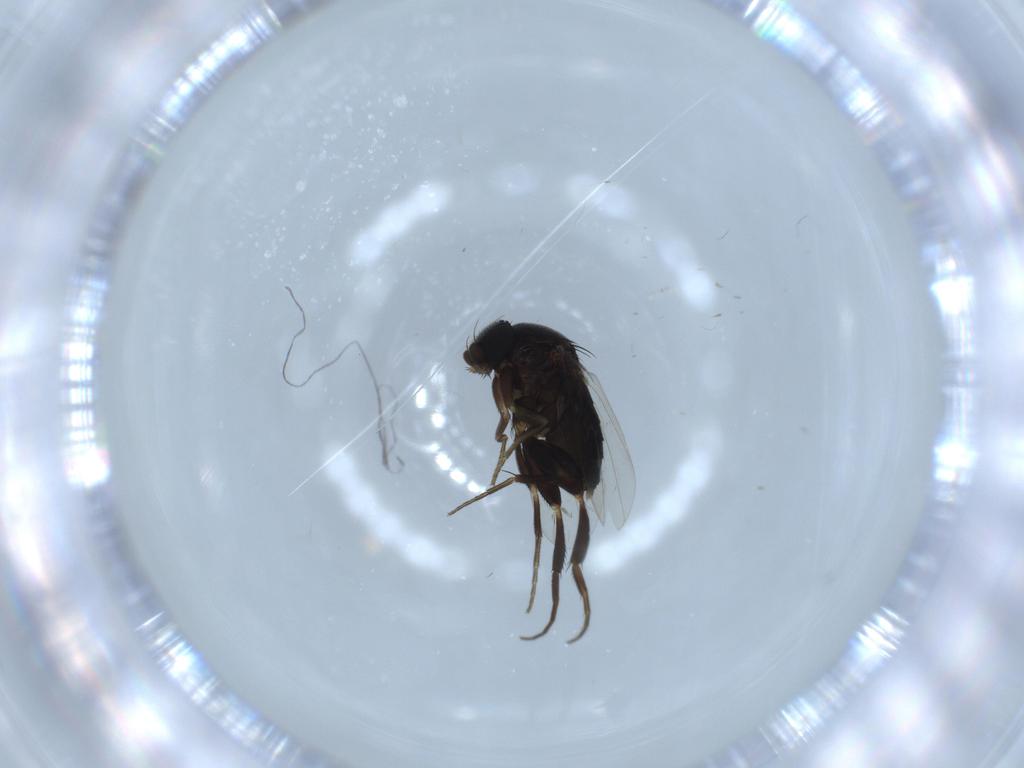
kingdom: Animalia
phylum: Arthropoda
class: Insecta
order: Diptera
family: Phoridae
